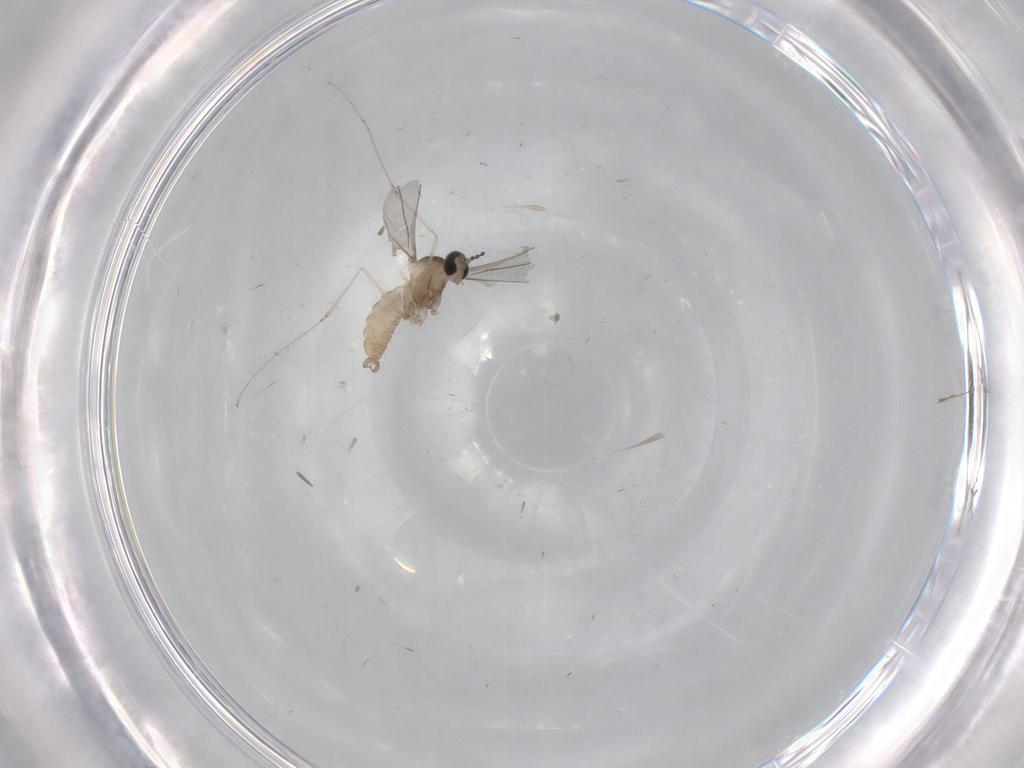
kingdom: Animalia
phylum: Arthropoda
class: Insecta
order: Diptera
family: Cecidomyiidae
